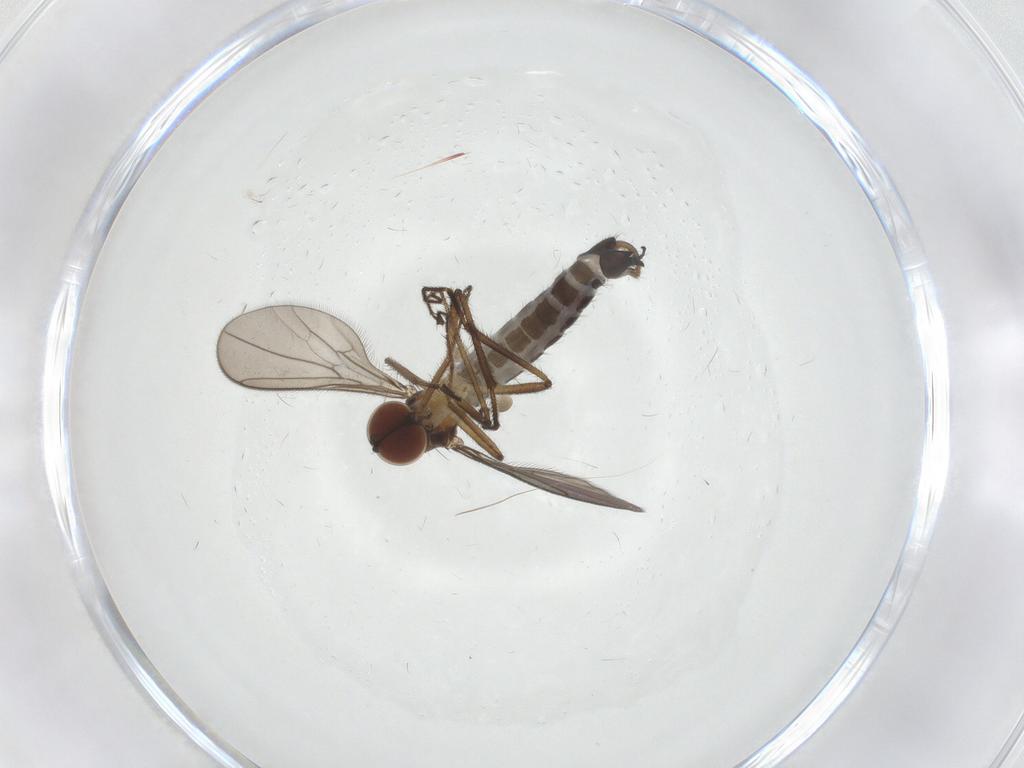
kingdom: Animalia
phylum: Arthropoda
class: Insecta
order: Diptera
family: Hybotidae
